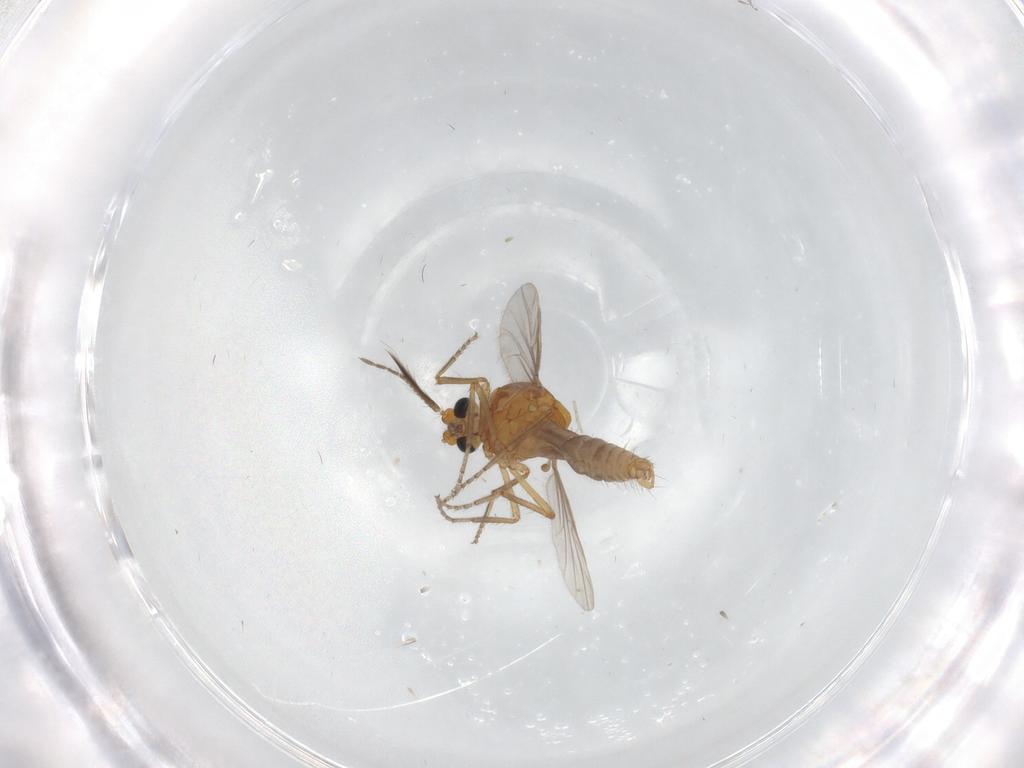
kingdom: Animalia
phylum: Arthropoda
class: Insecta
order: Diptera
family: Ceratopogonidae
